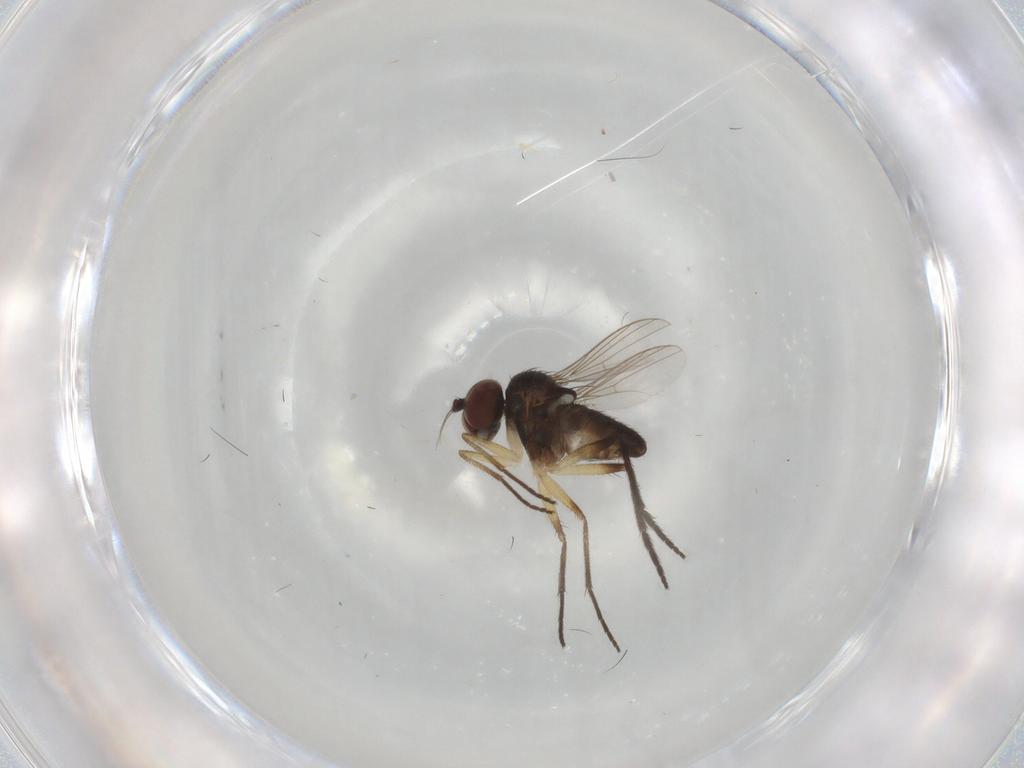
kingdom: Animalia
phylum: Arthropoda
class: Insecta
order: Diptera
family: Dolichopodidae
